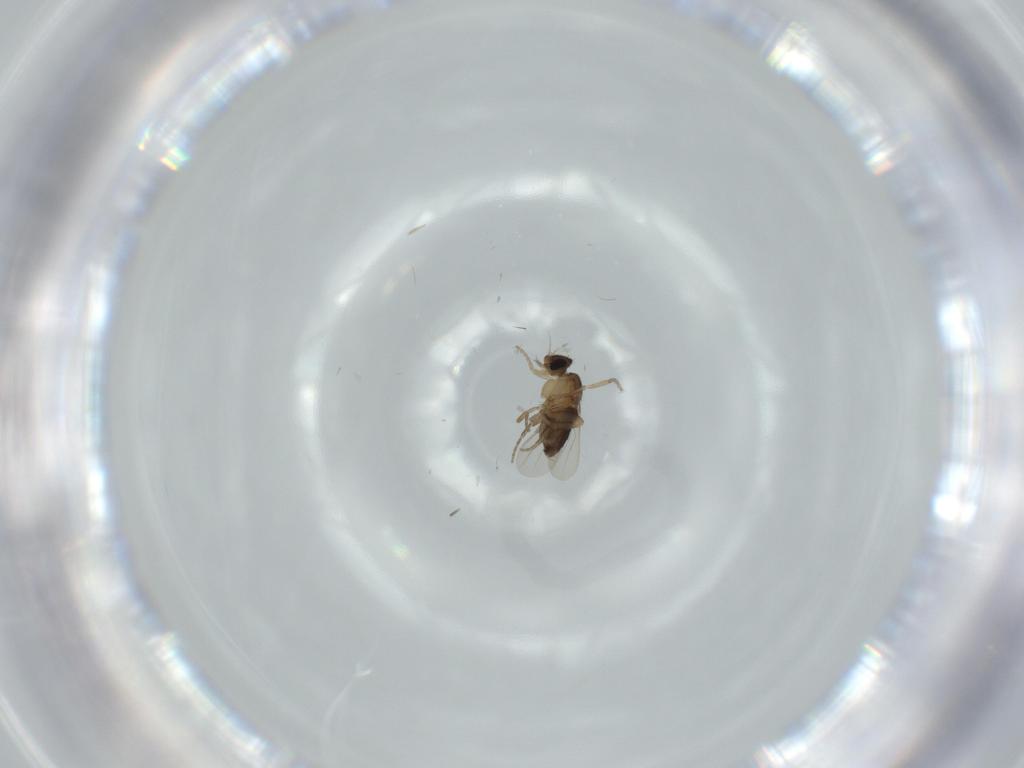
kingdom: Animalia
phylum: Arthropoda
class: Insecta
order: Diptera
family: Phoridae
